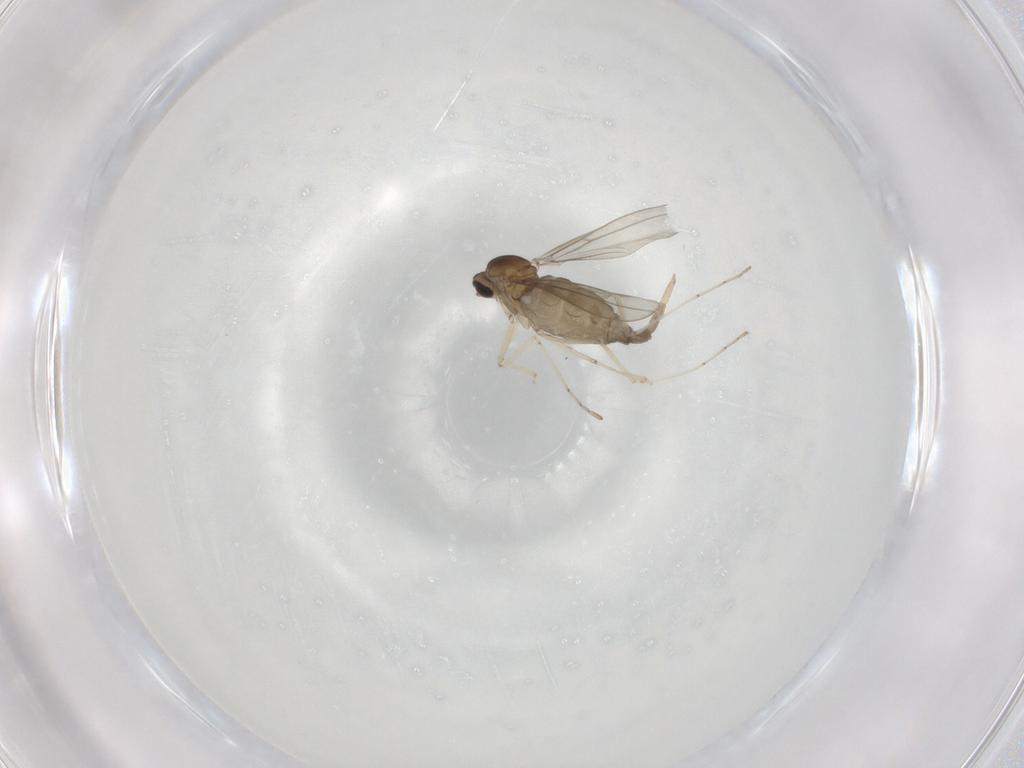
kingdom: Animalia
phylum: Arthropoda
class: Insecta
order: Diptera
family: Cecidomyiidae
